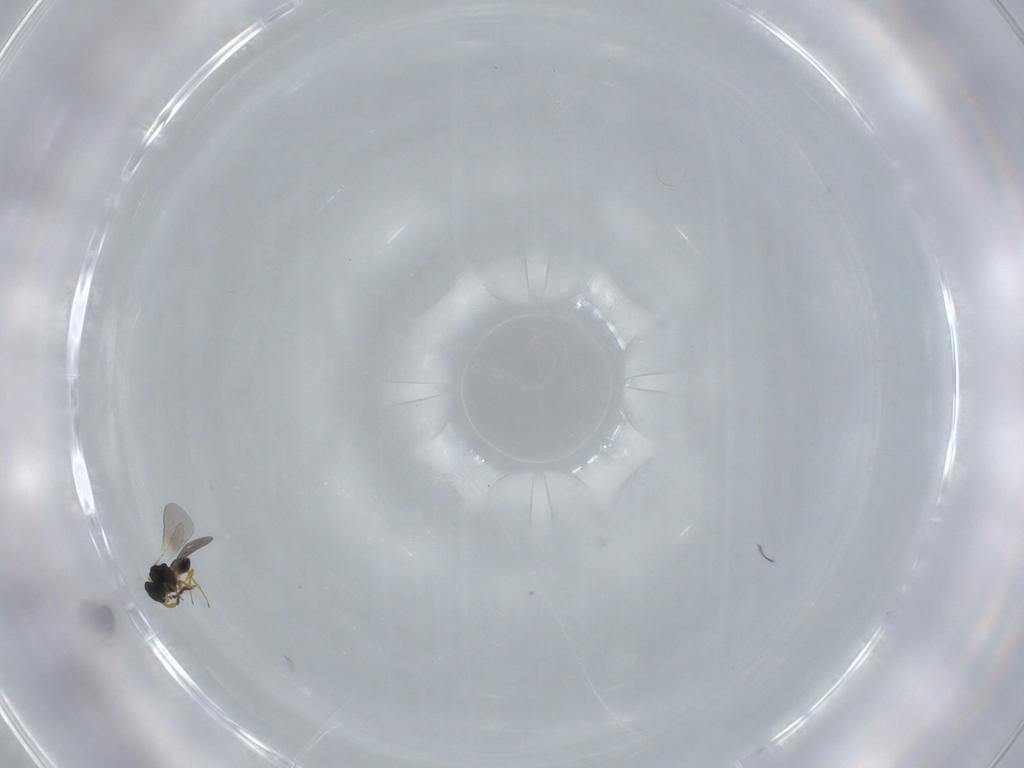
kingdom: Animalia
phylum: Arthropoda
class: Insecta
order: Hymenoptera
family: Platygastridae
